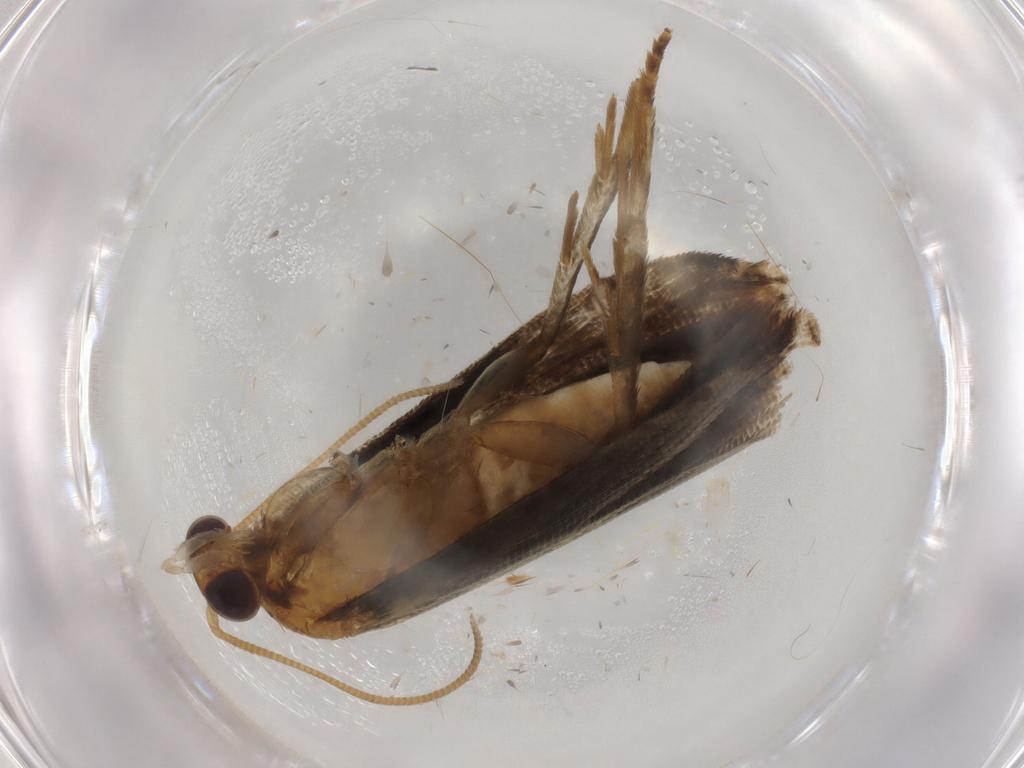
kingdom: Animalia
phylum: Arthropoda
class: Insecta
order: Lepidoptera
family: Tortricidae
